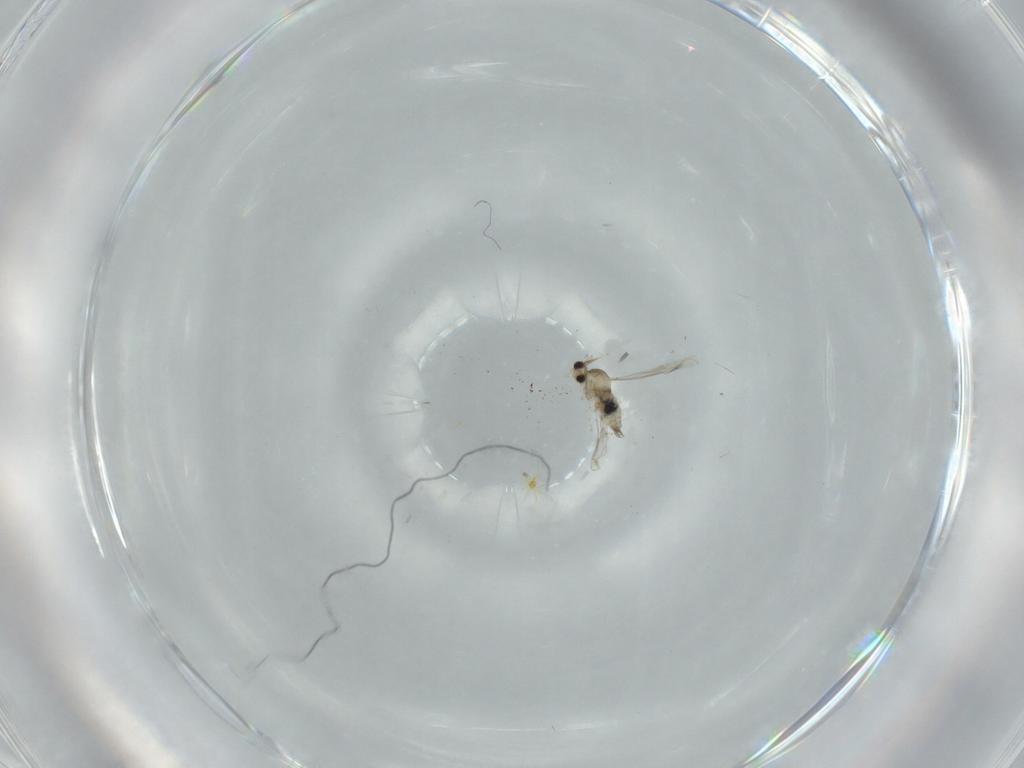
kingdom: Animalia
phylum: Arthropoda
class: Insecta
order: Diptera
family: Cecidomyiidae
